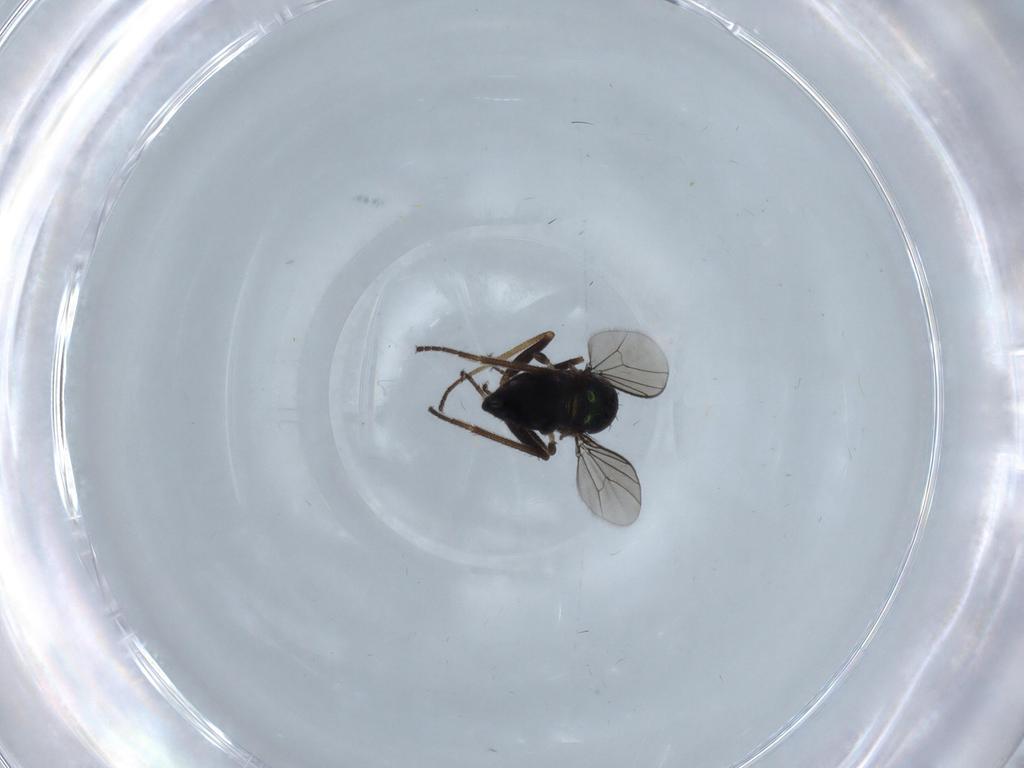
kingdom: Animalia
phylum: Arthropoda
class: Insecta
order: Diptera
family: Dolichopodidae
